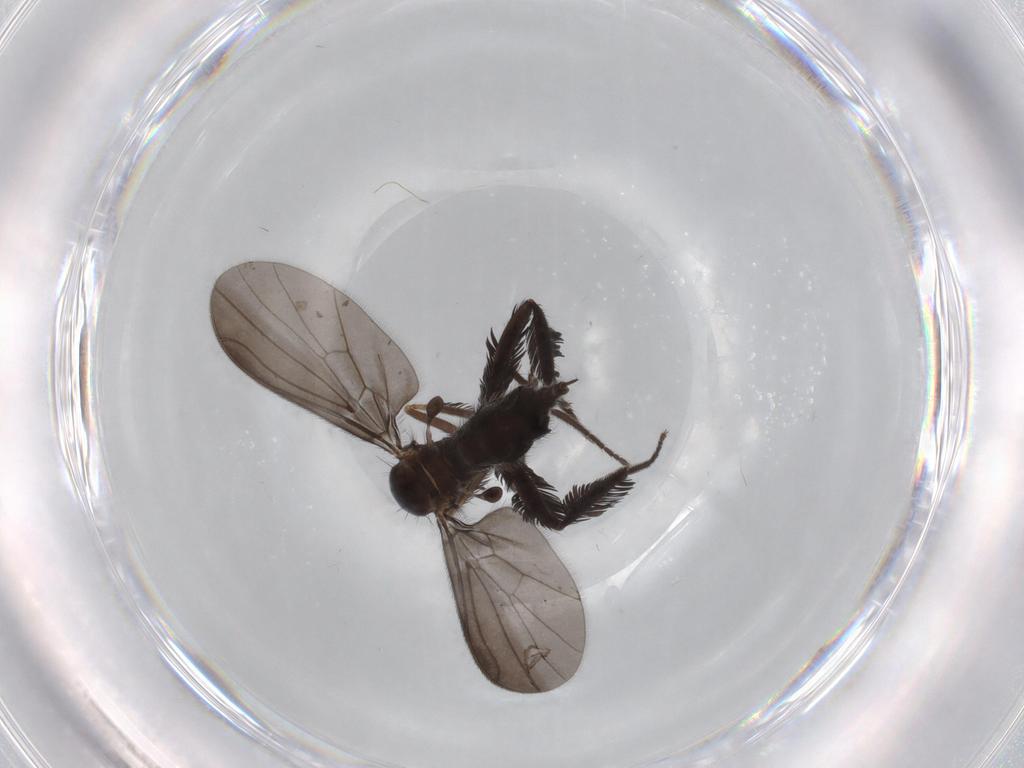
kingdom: Animalia
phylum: Arthropoda
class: Insecta
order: Diptera
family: Empididae
